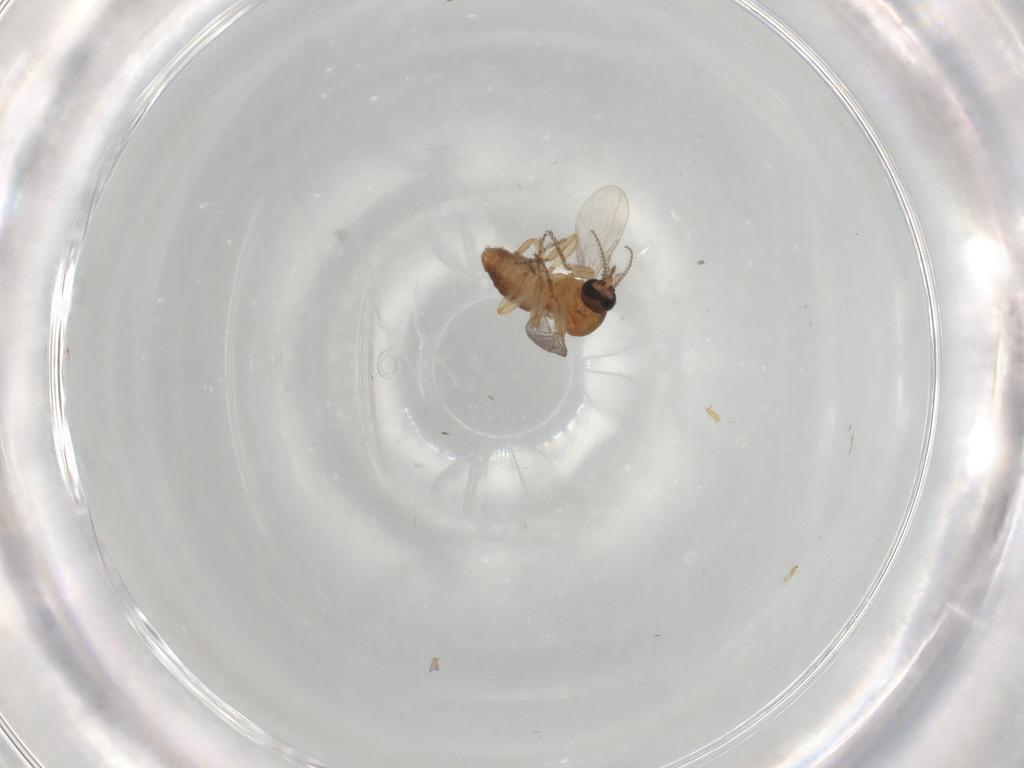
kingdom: Animalia
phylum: Arthropoda
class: Insecta
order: Diptera
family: Ceratopogonidae
